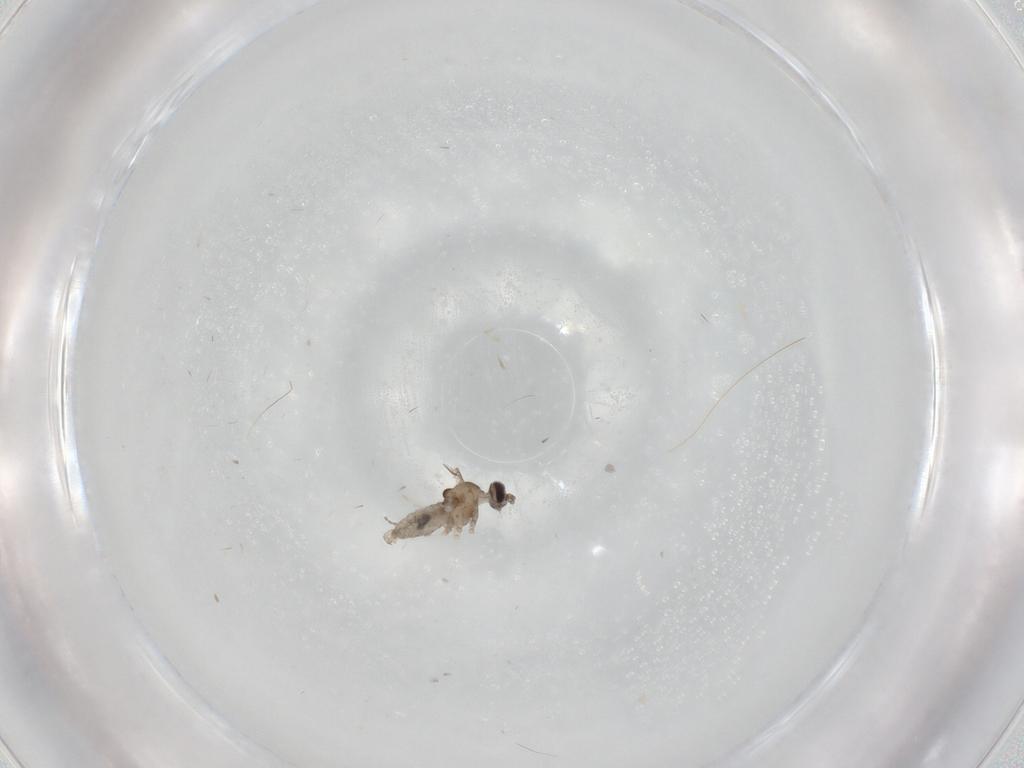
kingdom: Animalia
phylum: Arthropoda
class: Insecta
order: Diptera
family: Cecidomyiidae
